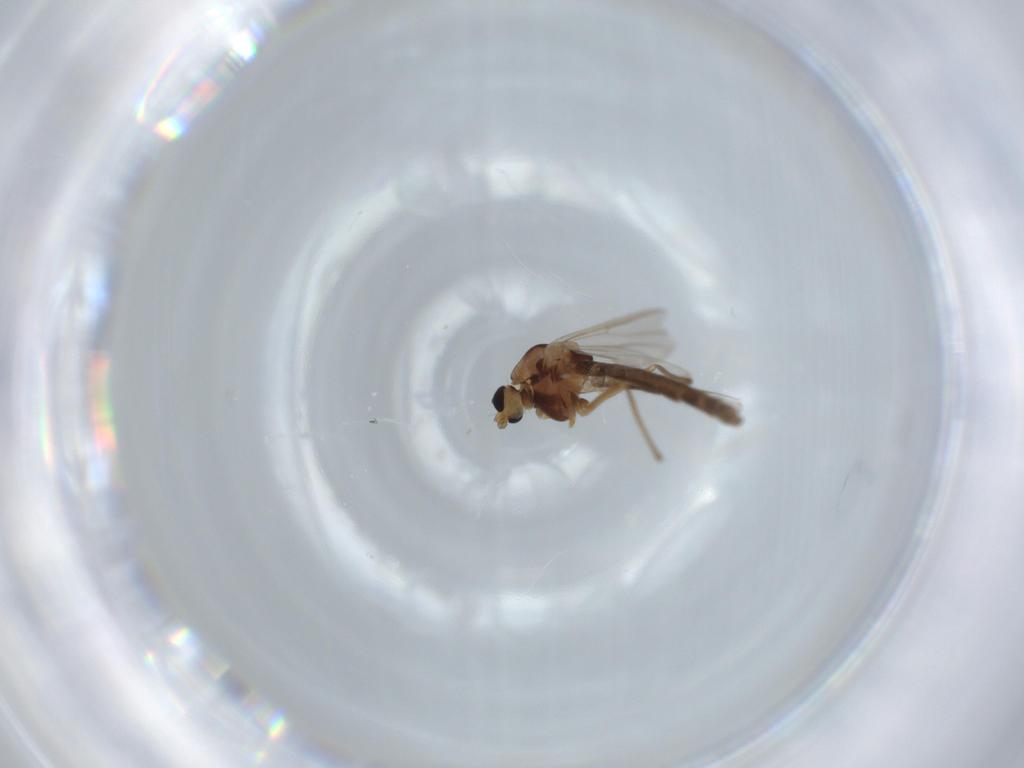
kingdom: Animalia
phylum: Arthropoda
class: Insecta
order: Diptera
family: Chironomidae
